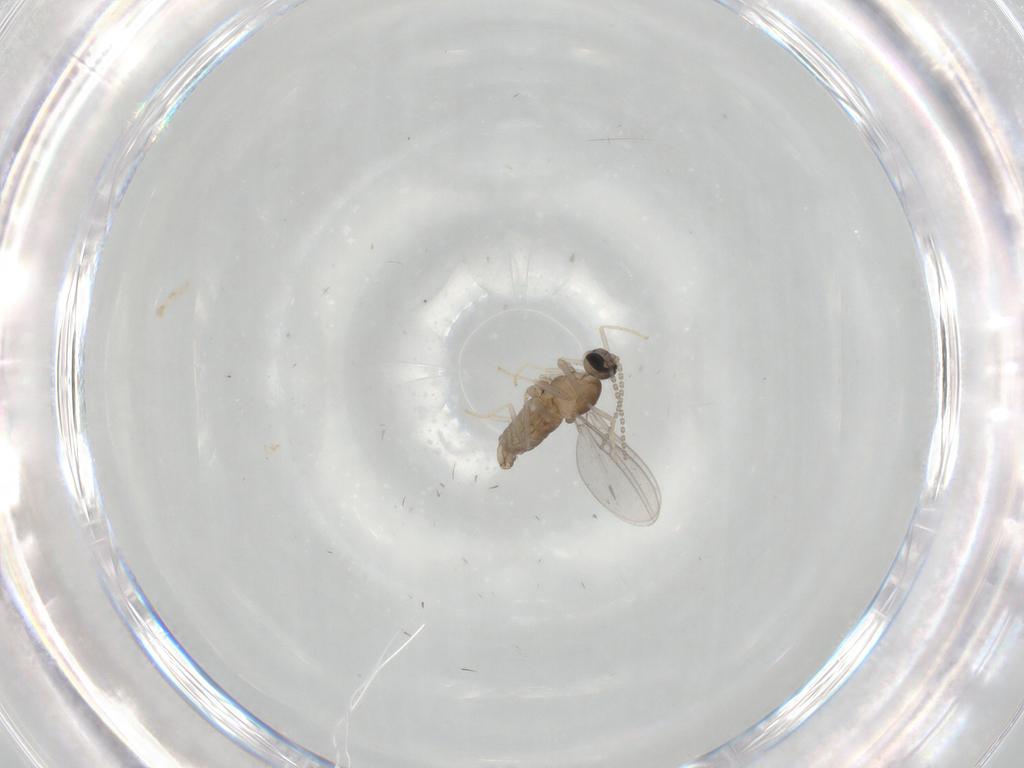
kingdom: Animalia
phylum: Arthropoda
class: Insecta
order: Diptera
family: Cecidomyiidae
